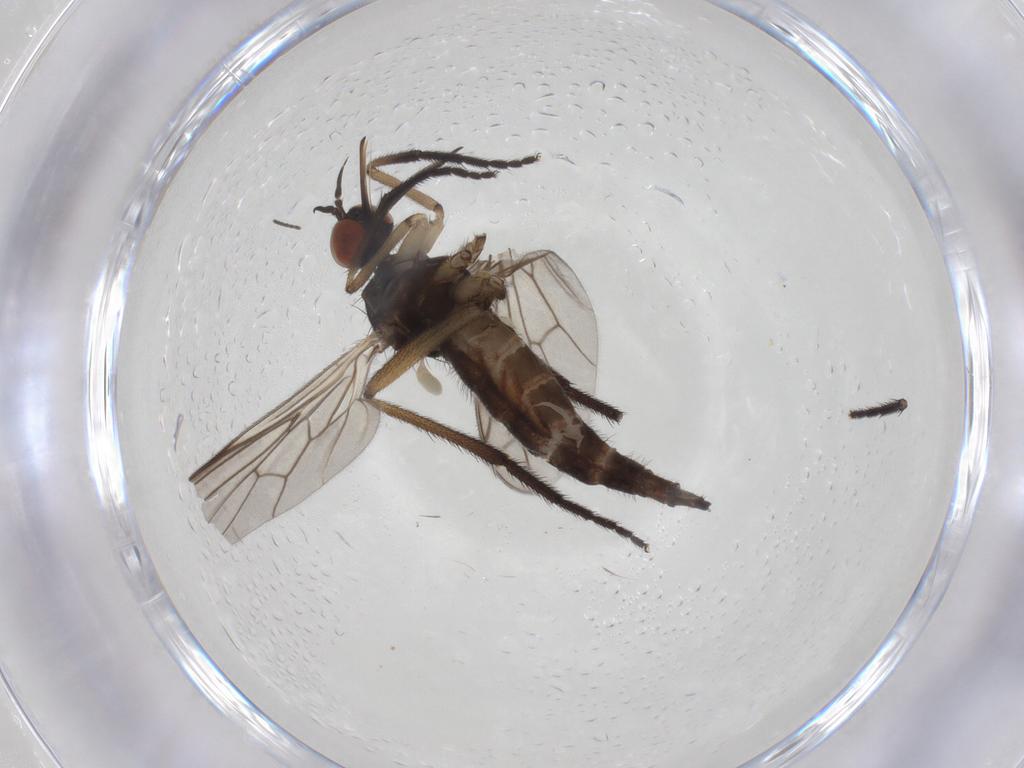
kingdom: Animalia
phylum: Arthropoda
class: Insecta
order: Diptera
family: Empididae
